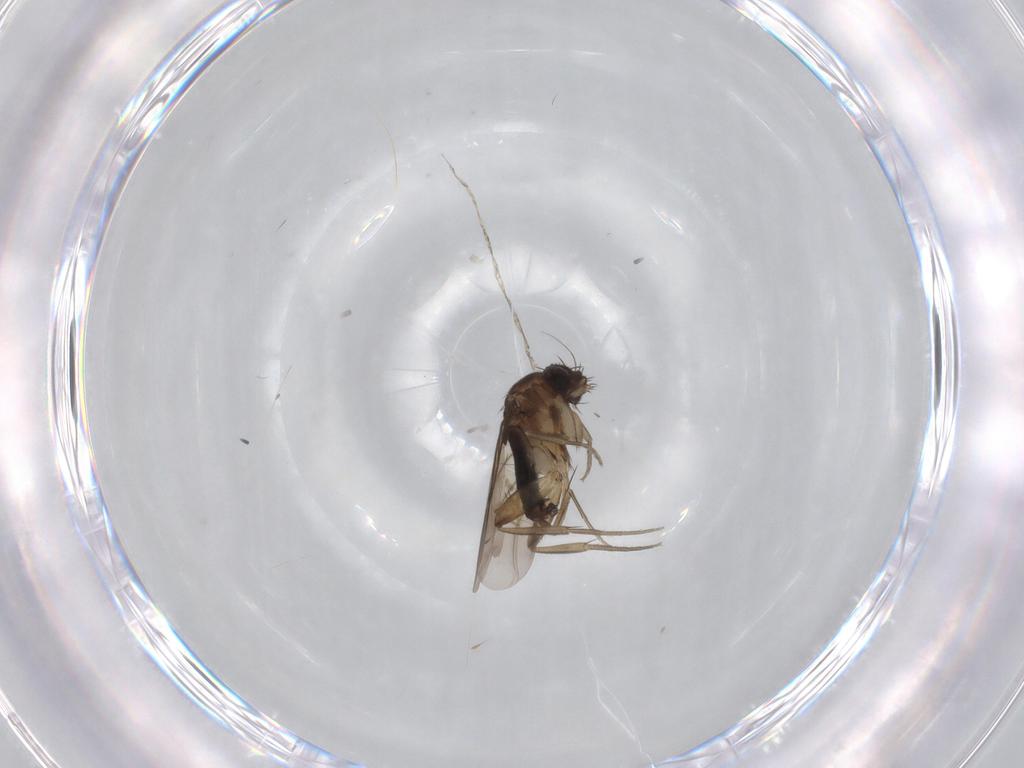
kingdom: Animalia
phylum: Arthropoda
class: Insecta
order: Diptera
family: Phoridae
